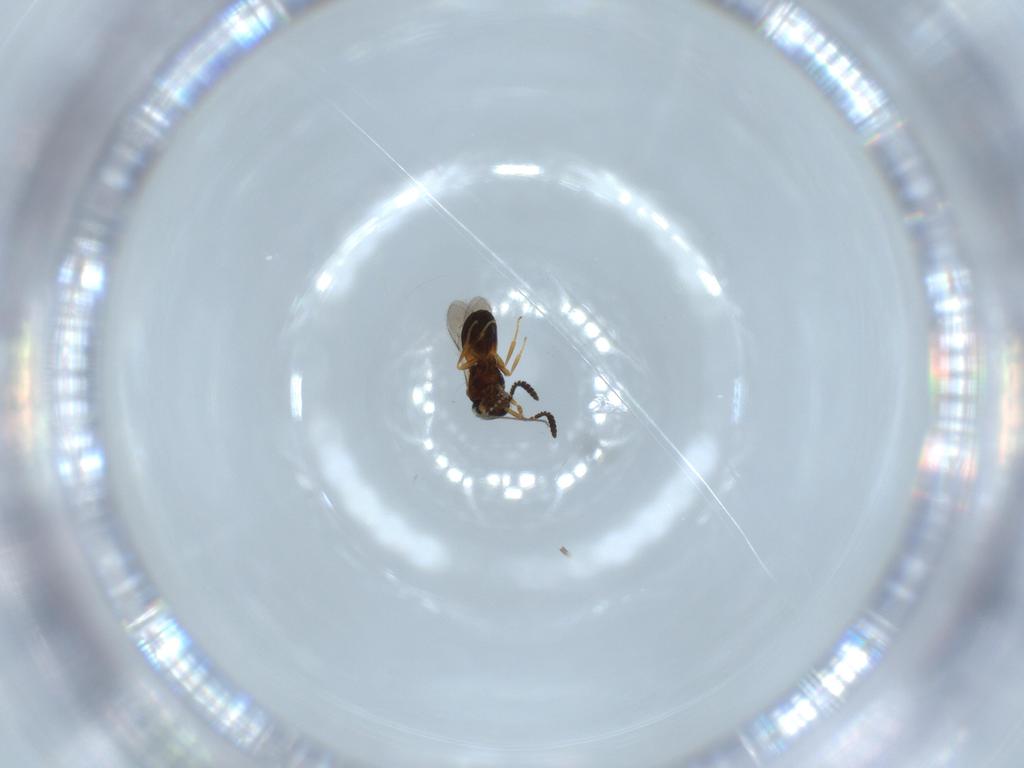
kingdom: Animalia
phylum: Arthropoda
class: Insecta
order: Hymenoptera
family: Scelionidae
